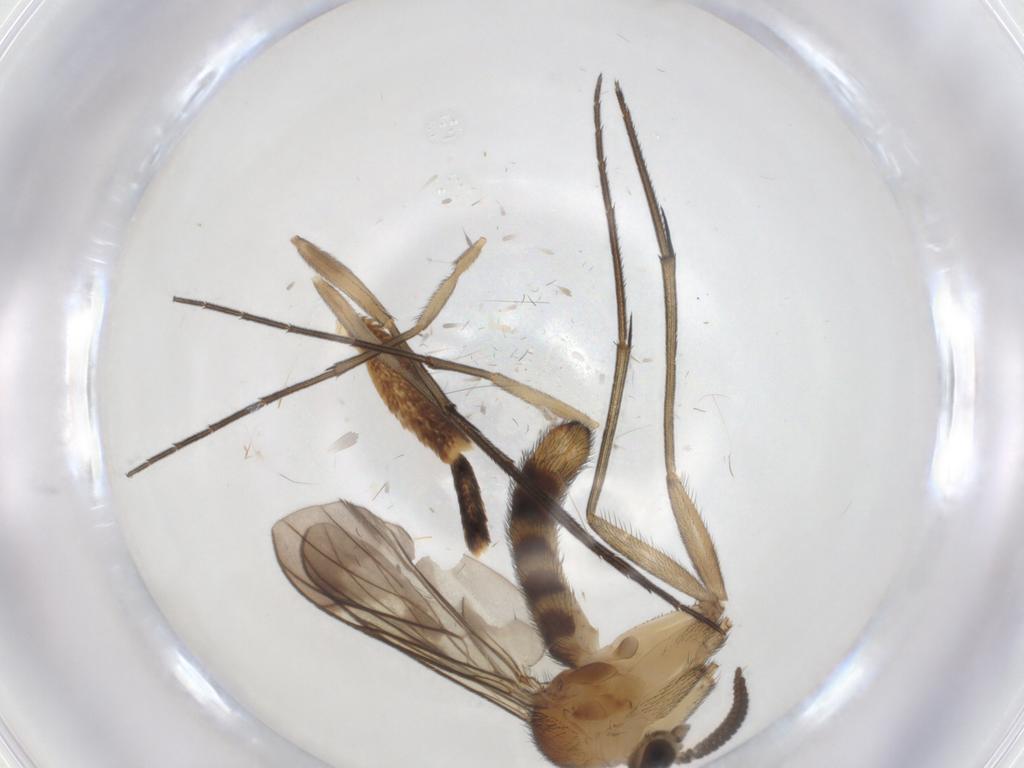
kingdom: Animalia
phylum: Arthropoda
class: Insecta
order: Diptera
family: Keroplatidae
